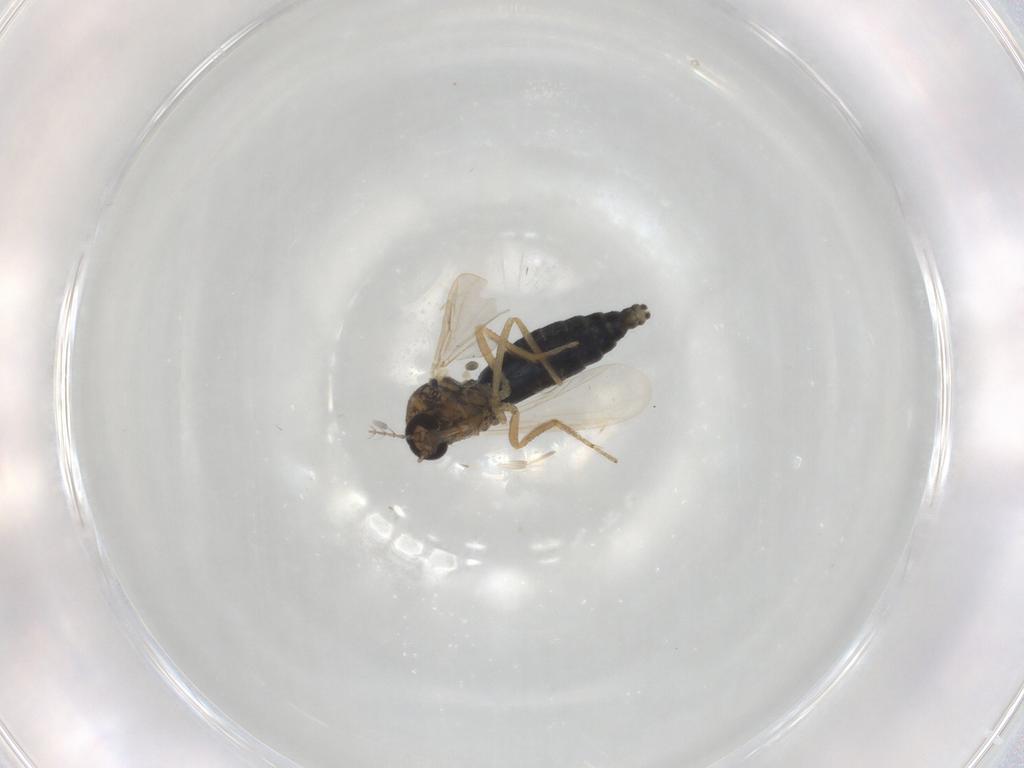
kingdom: Animalia
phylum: Arthropoda
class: Insecta
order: Diptera
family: Ceratopogonidae
